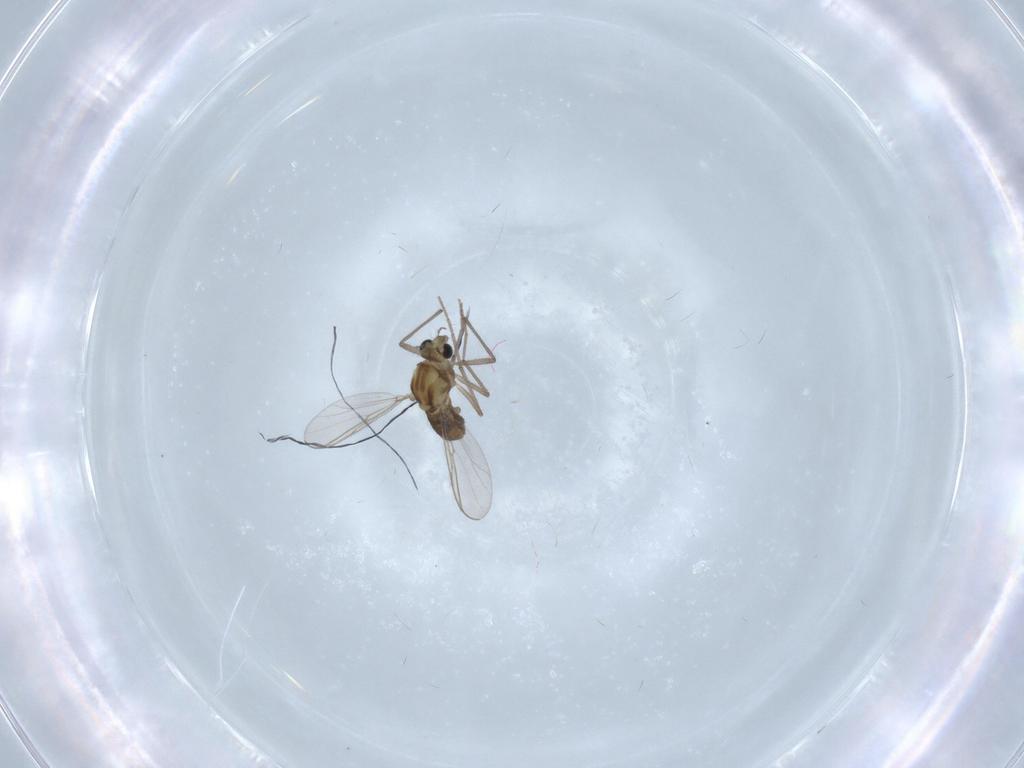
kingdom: Animalia
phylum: Arthropoda
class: Insecta
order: Diptera
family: Chironomidae
